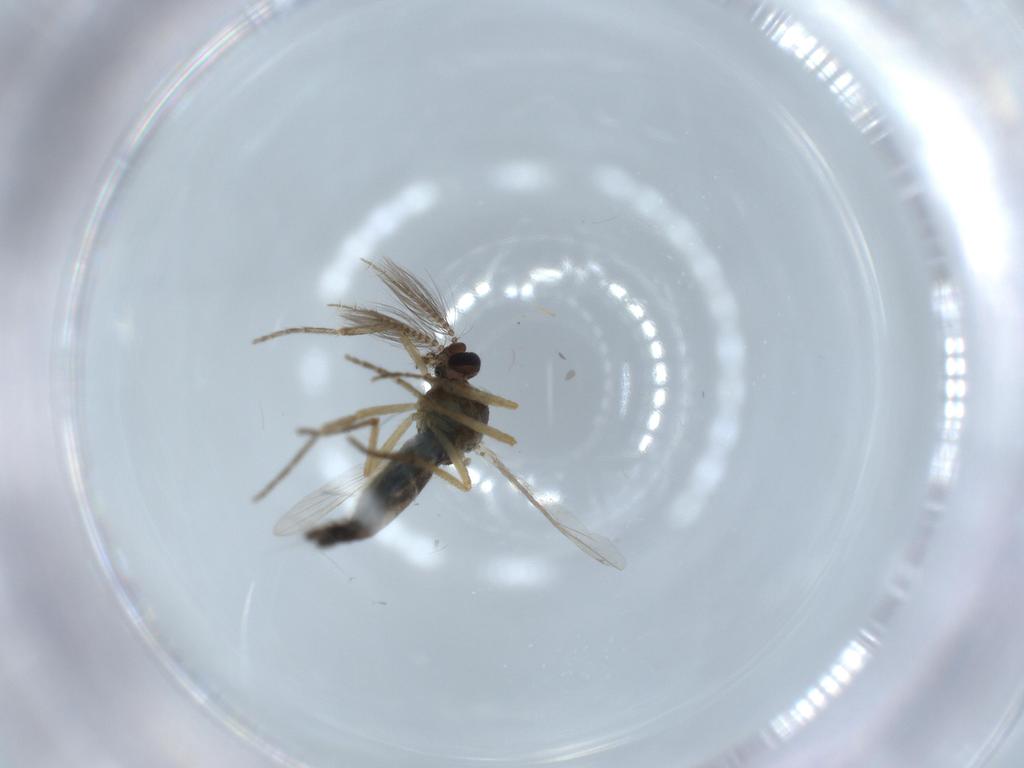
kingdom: Animalia
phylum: Arthropoda
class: Insecta
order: Diptera
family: Ceratopogonidae
